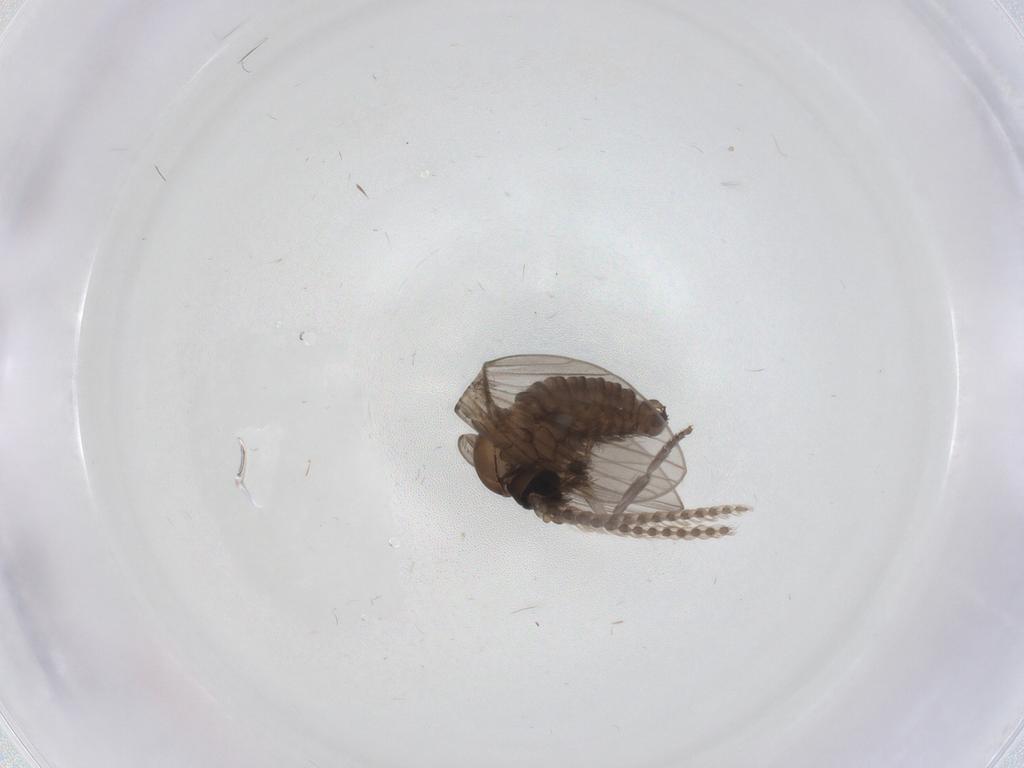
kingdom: Animalia
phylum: Arthropoda
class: Insecta
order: Diptera
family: Psychodidae
